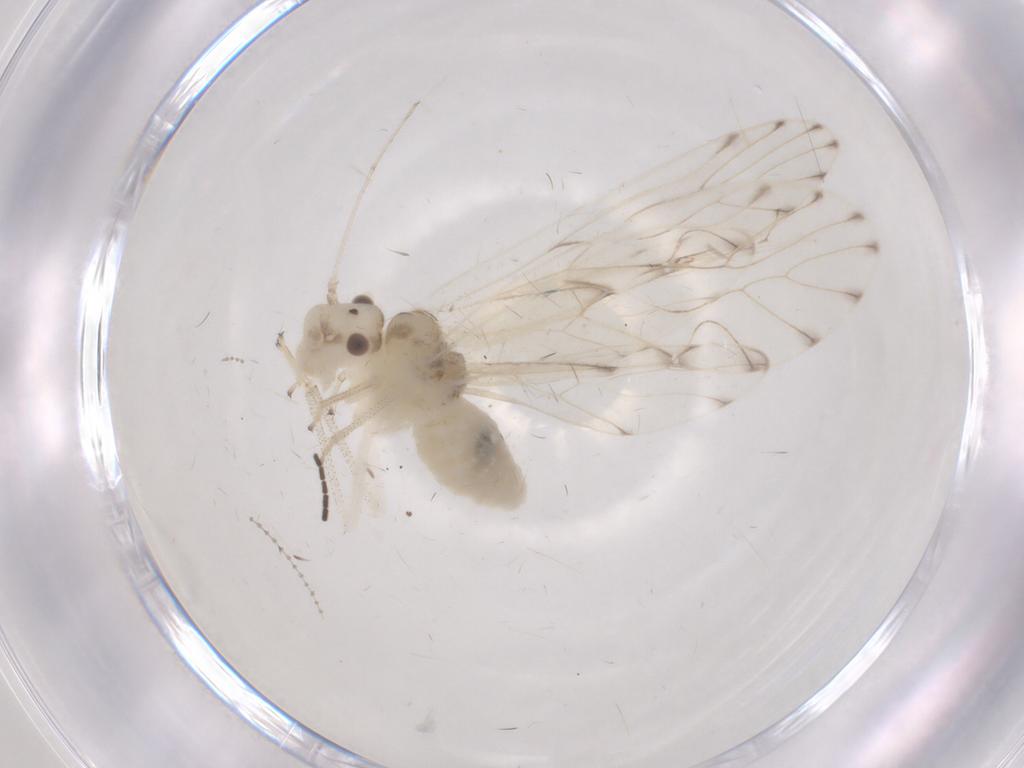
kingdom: Animalia
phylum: Arthropoda
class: Insecta
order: Psocodea
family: Philotarsidae
